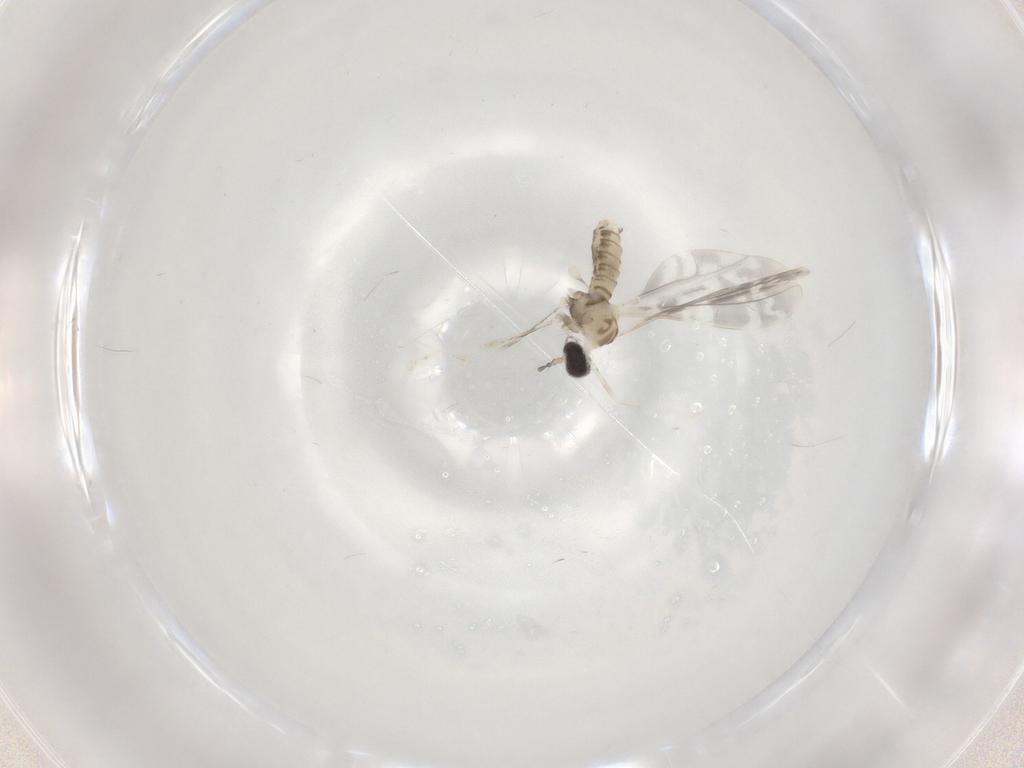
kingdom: Animalia
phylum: Arthropoda
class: Insecta
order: Diptera
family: Cecidomyiidae
